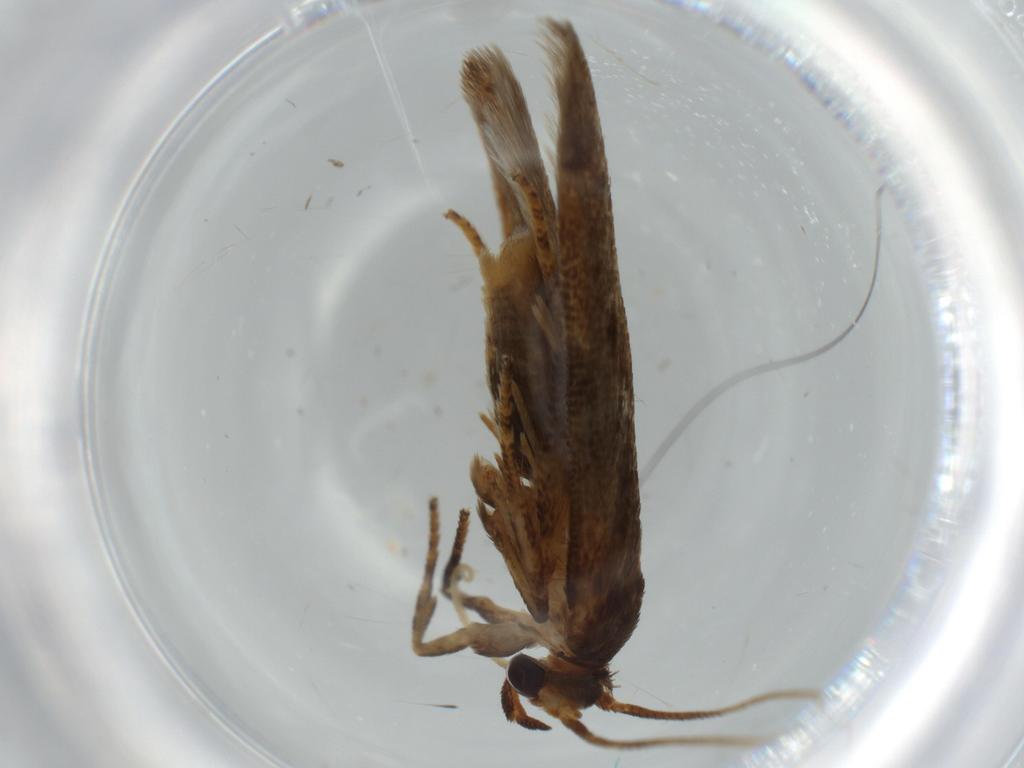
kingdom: Animalia
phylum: Arthropoda
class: Insecta
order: Lepidoptera
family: Coleophoridae
